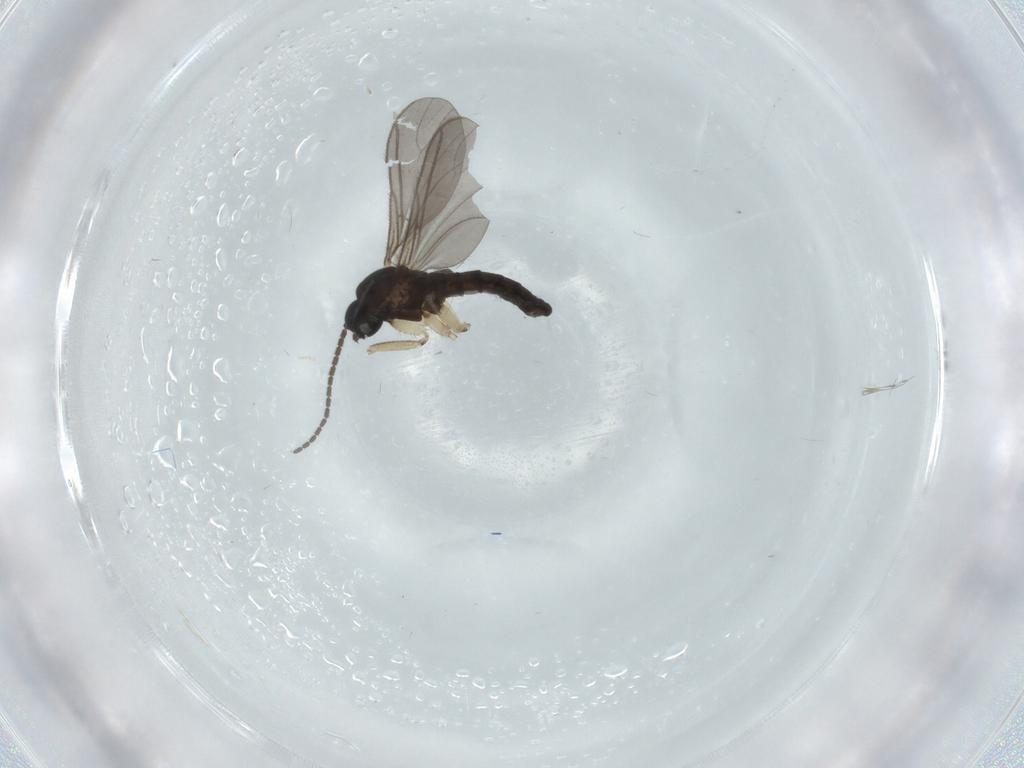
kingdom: Animalia
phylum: Arthropoda
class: Insecta
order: Diptera
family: Sciaridae
